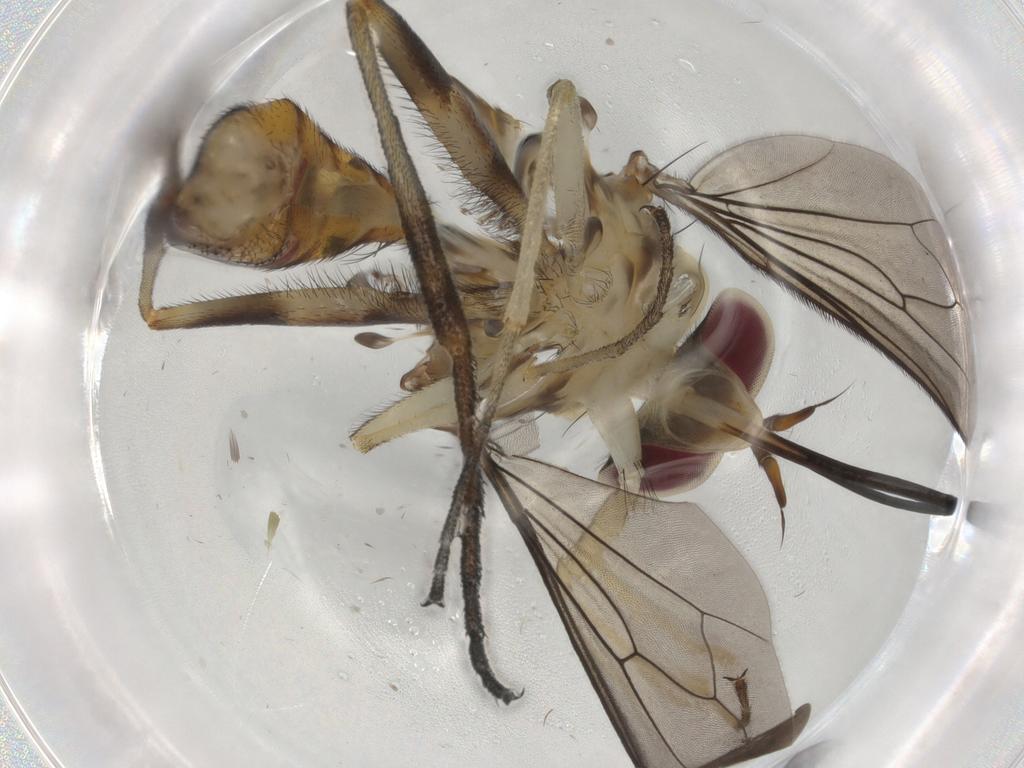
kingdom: Animalia
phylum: Arthropoda
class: Insecta
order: Diptera
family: Conopidae
